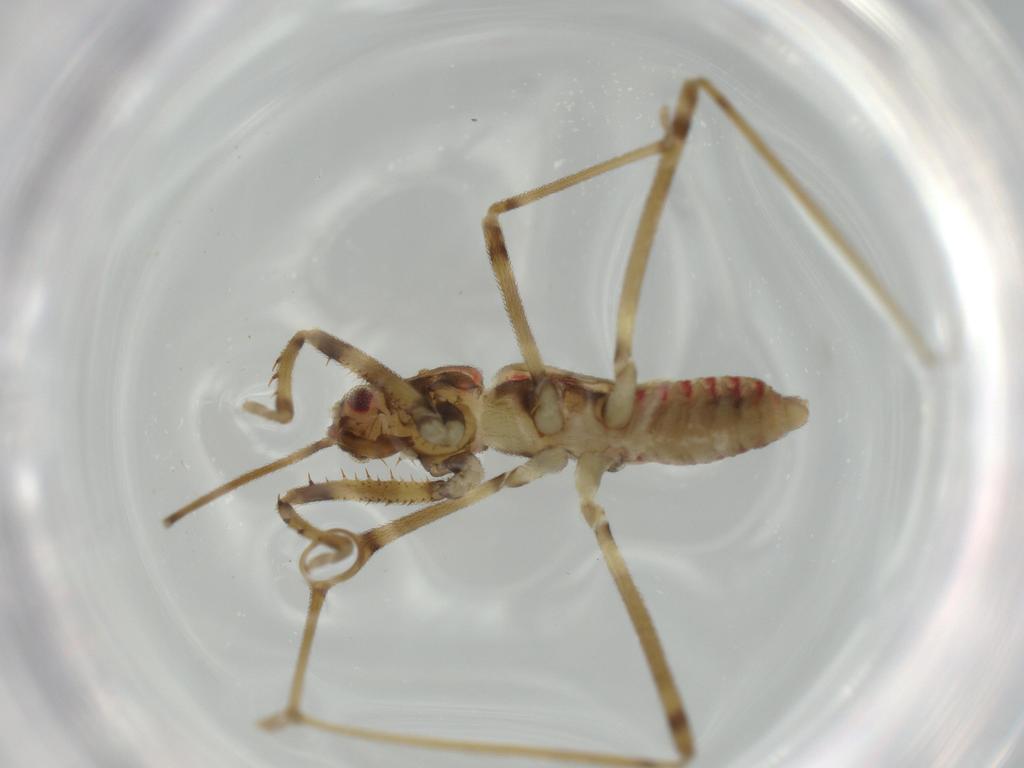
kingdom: Animalia
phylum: Arthropoda
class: Insecta
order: Hemiptera
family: Reduviidae
